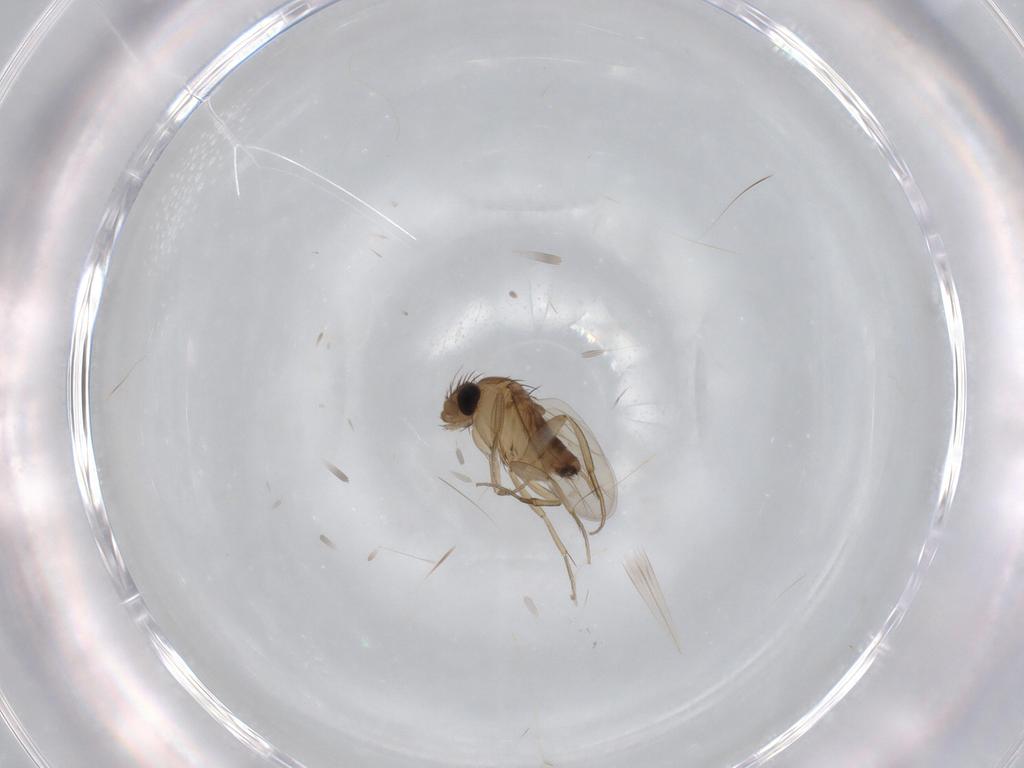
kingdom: Animalia
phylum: Arthropoda
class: Insecta
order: Diptera
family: Phoridae
